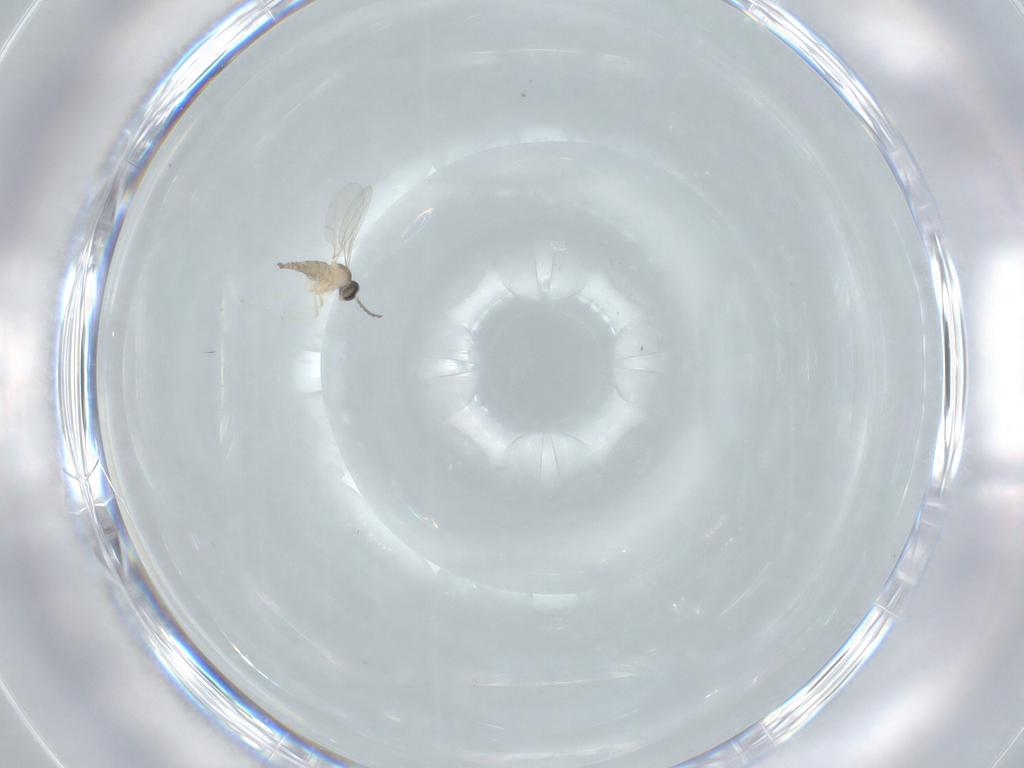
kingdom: Animalia
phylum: Arthropoda
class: Insecta
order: Diptera
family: Cecidomyiidae
